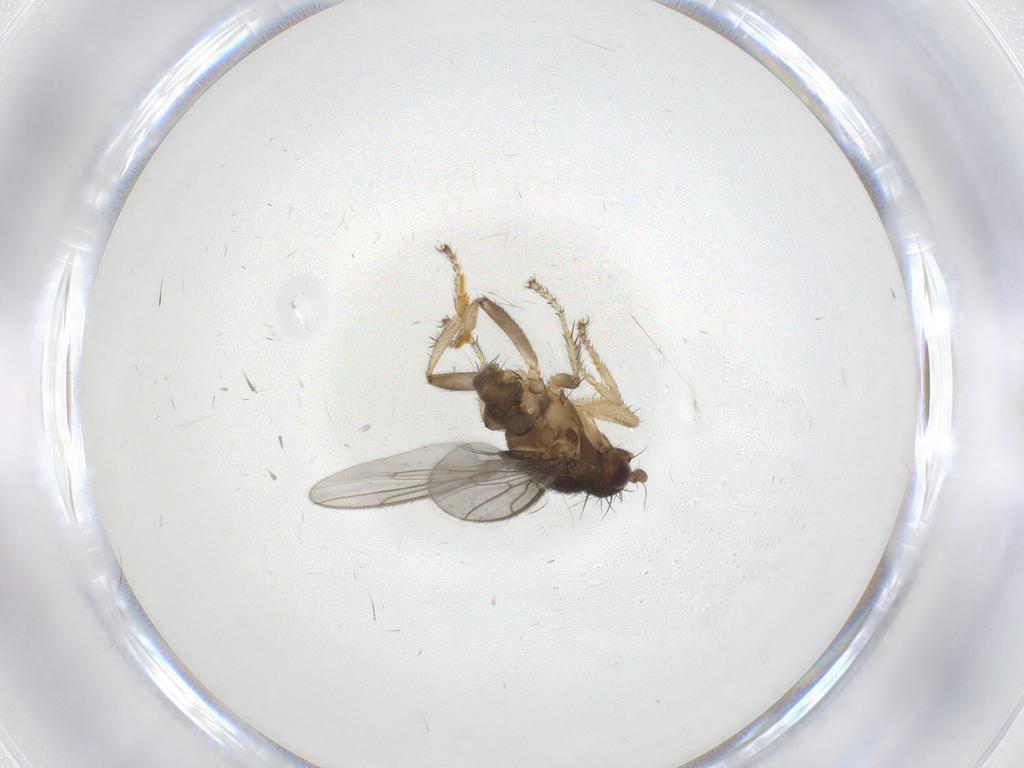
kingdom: Animalia
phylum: Arthropoda
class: Insecta
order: Diptera
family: Sphaeroceridae
